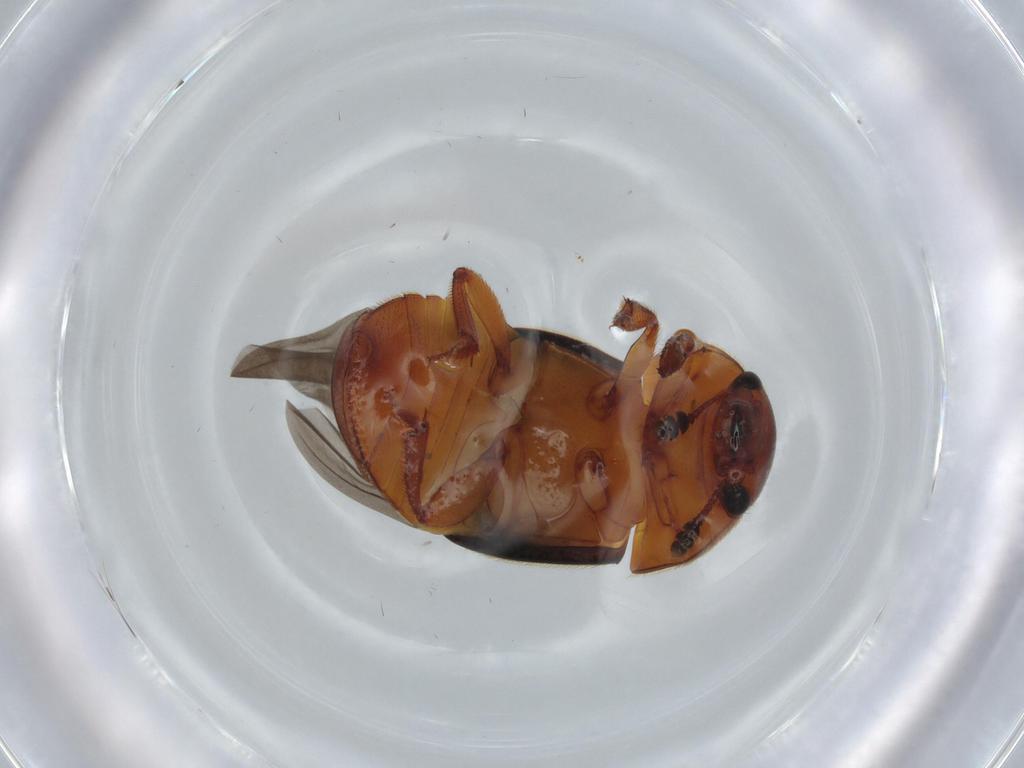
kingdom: Animalia
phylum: Arthropoda
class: Insecta
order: Coleoptera
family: Nitidulidae
